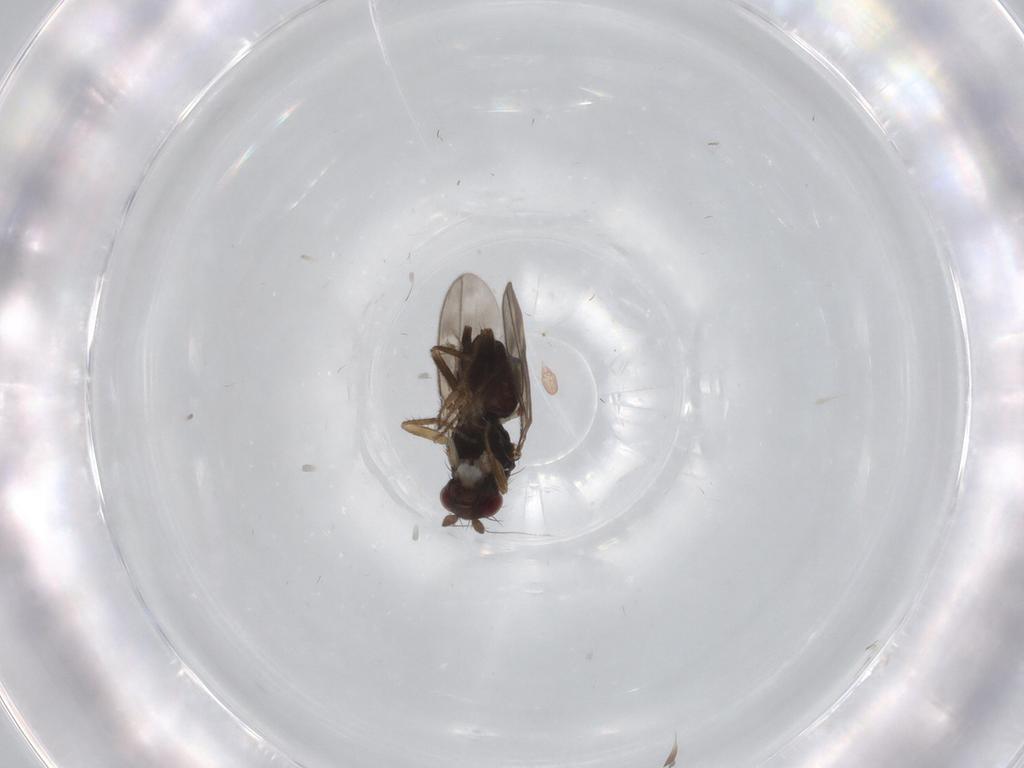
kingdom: Animalia
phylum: Arthropoda
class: Insecta
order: Diptera
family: Sphaeroceridae
